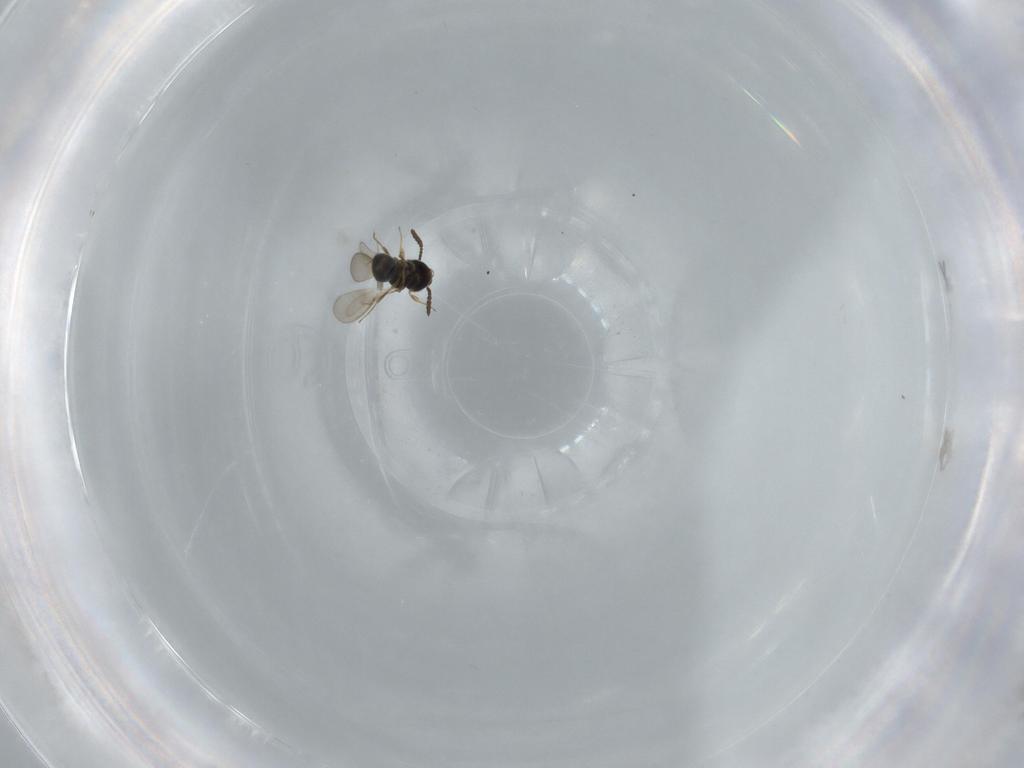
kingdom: Animalia
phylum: Arthropoda
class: Insecta
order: Hymenoptera
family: Scelionidae
